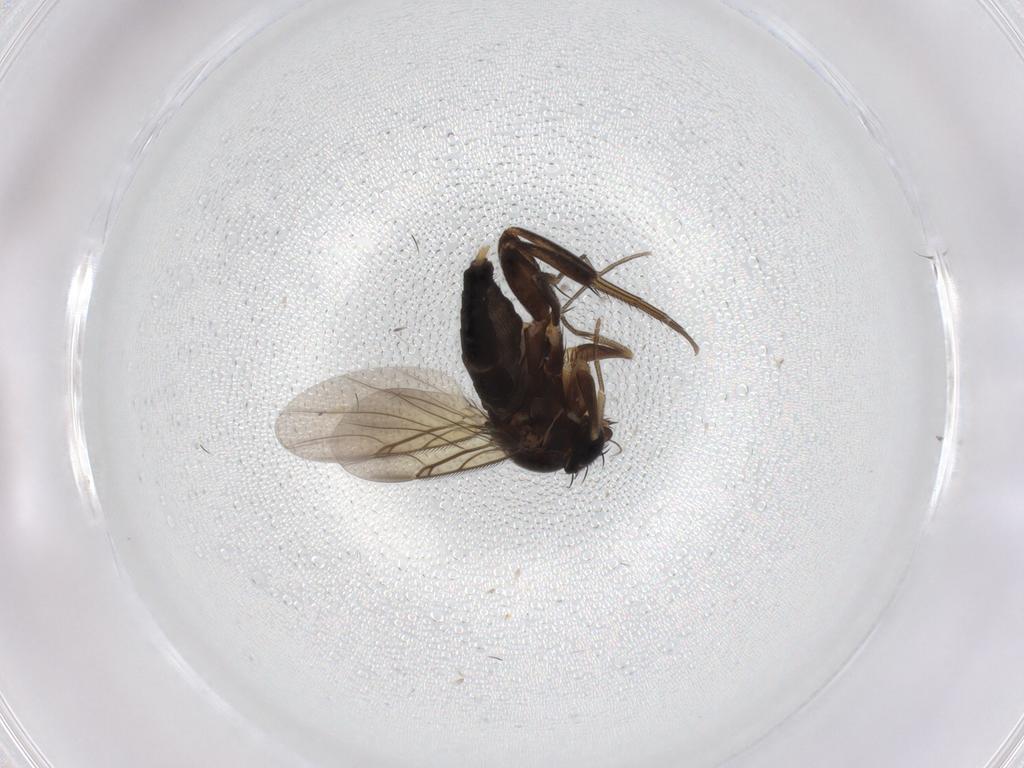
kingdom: Animalia
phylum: Arthropoda
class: Insecta
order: Diptera
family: Phoridae
